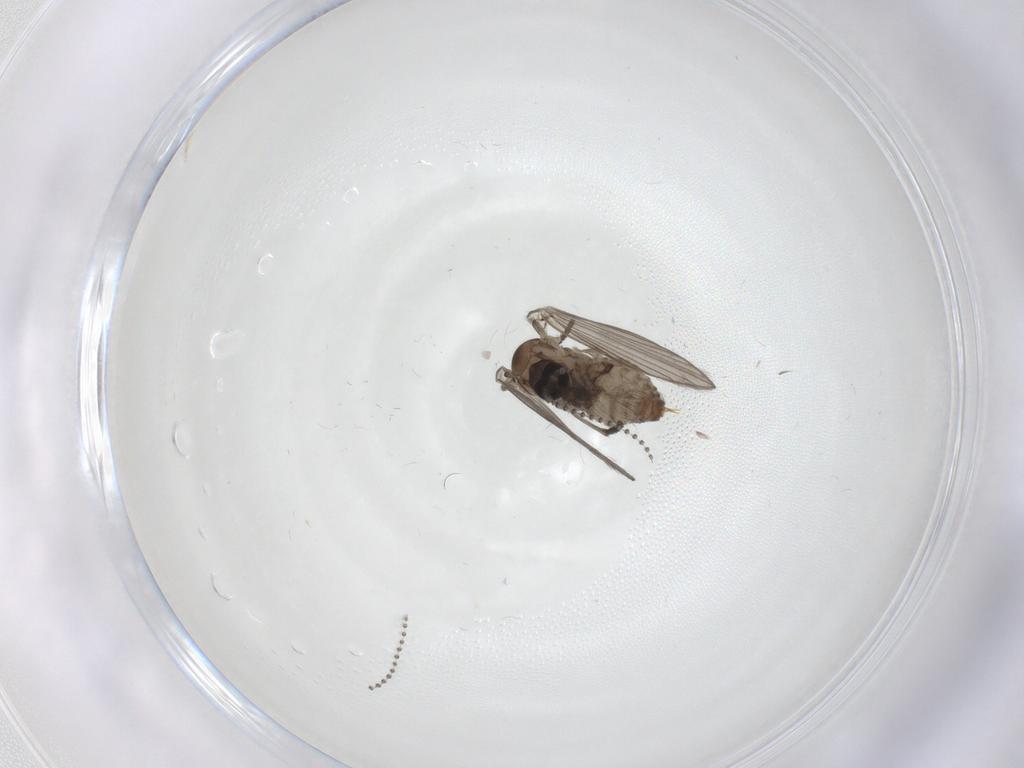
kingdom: Animalia
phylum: Arthropoda
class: Insecta
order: Diptera
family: Psychodidae
